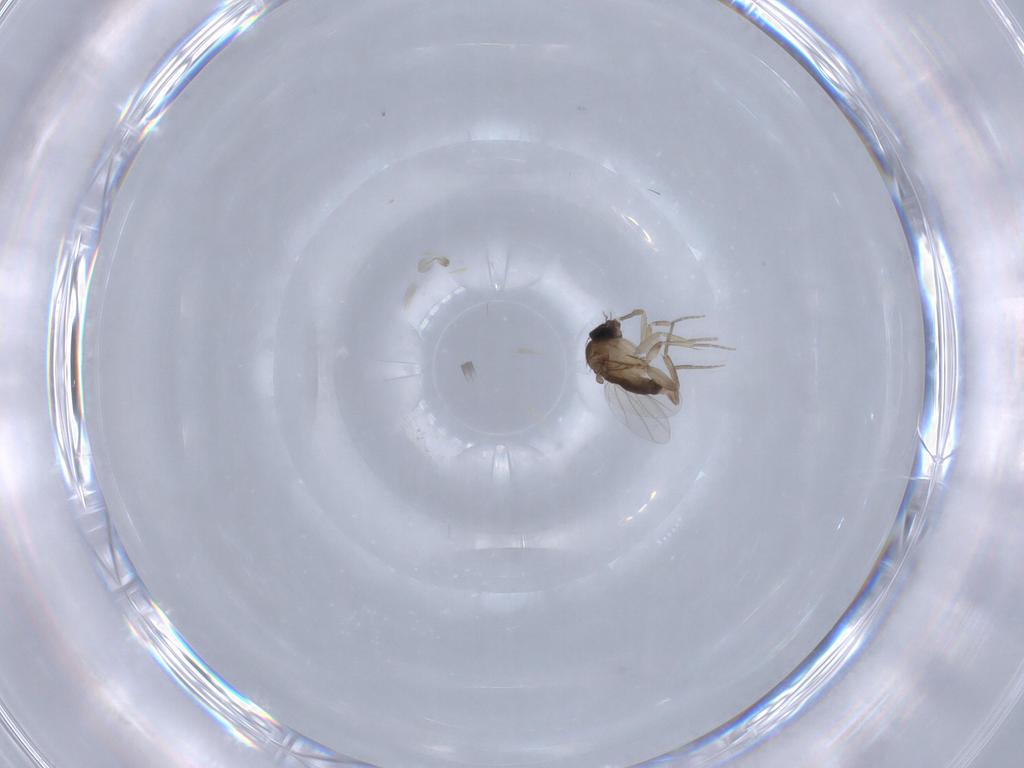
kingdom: Animalia
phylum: Arthropoda
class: Insecta
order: Diptera
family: Phoridae
